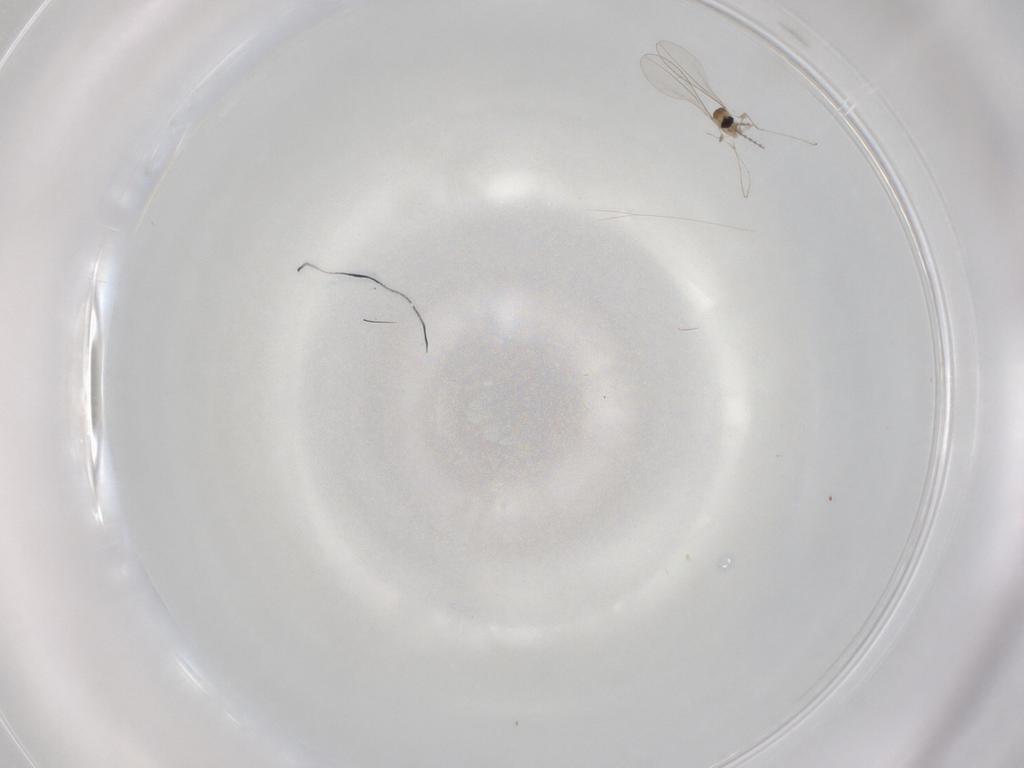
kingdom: Animalia
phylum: Arthropoda
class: Insecta
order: Diptera
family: Cecidomyiidae
